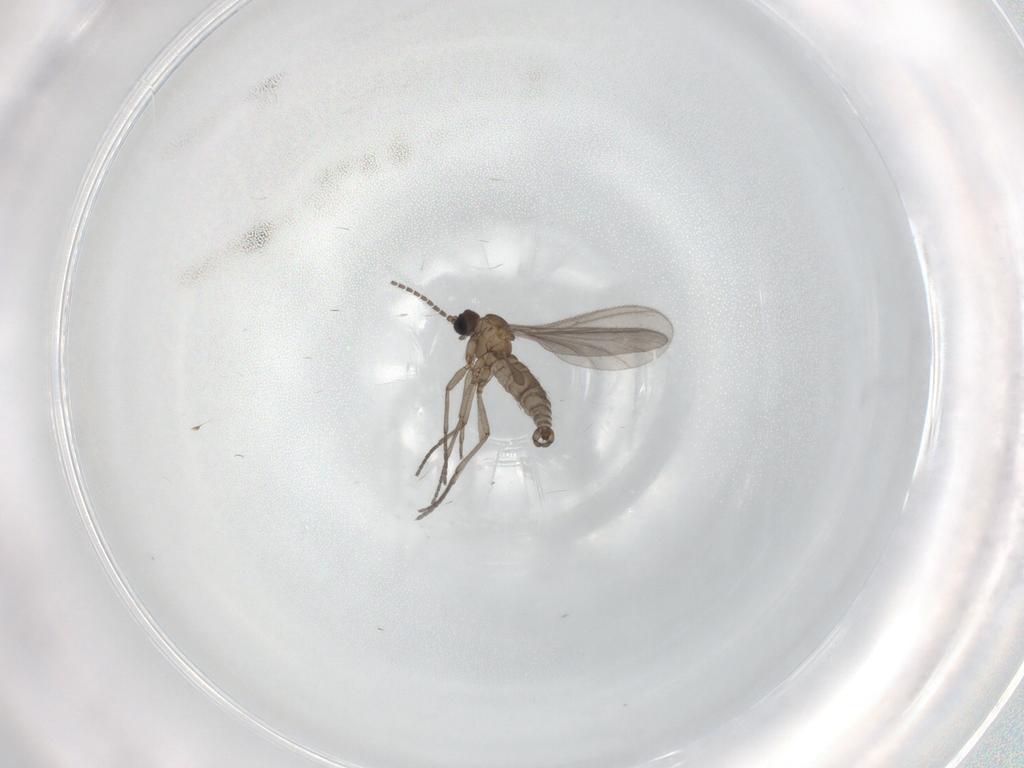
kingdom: Animalia
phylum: Arthropoda
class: Insecta
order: Diptera
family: Sciaridae
